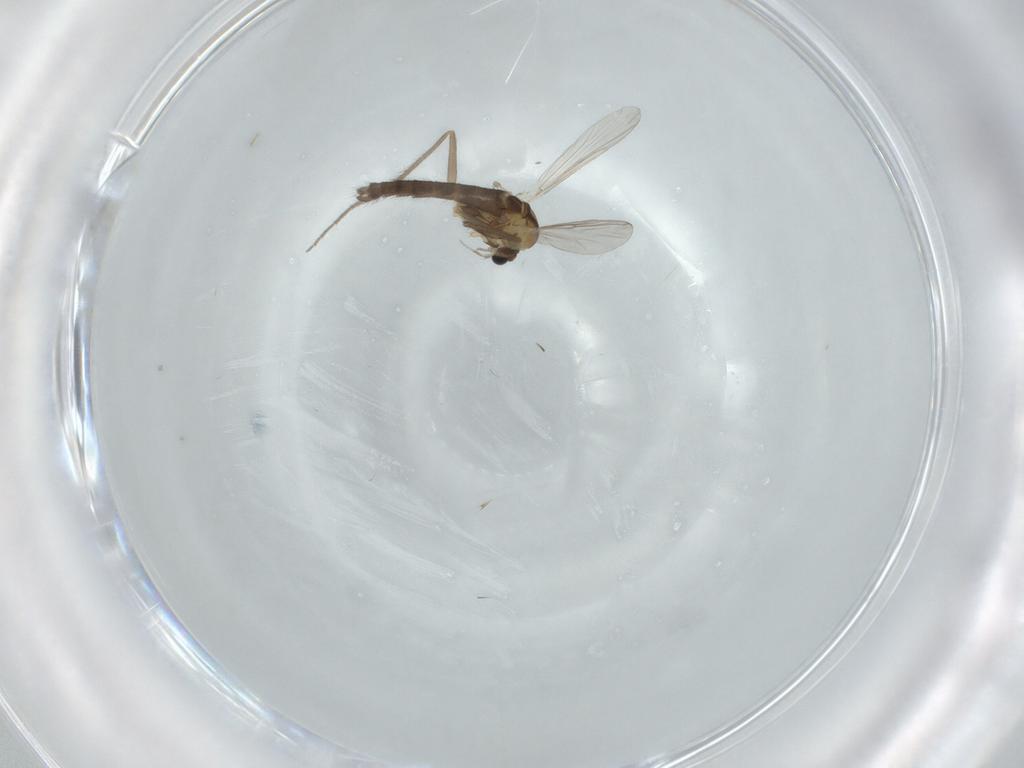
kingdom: Animalia
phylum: Arthropoda
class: Insecta
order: Diptera
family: Chironomidae
